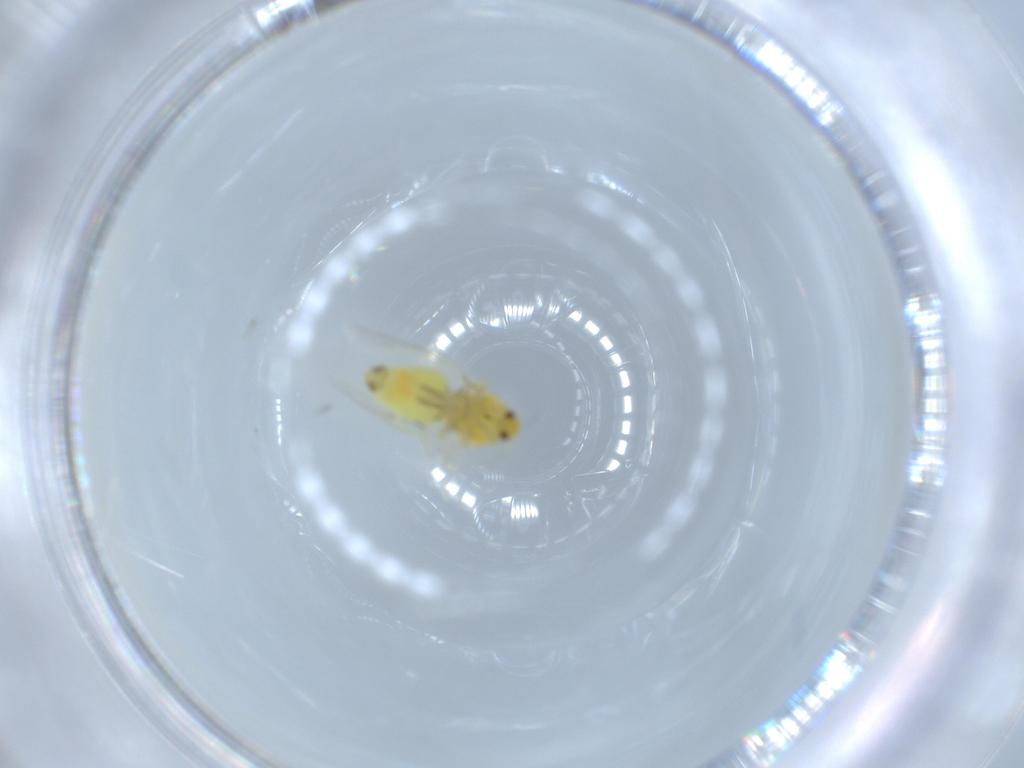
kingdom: Animalia
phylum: Arthropoda
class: Insecta
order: Hemiptera
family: Aleyrodidae
